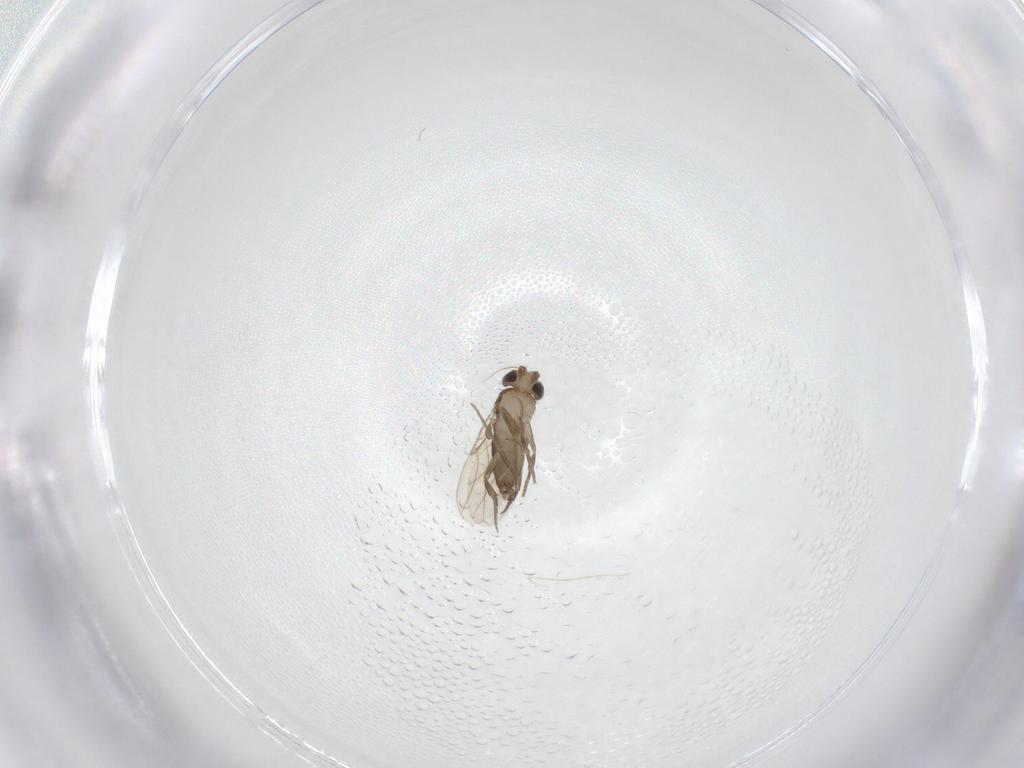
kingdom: Animalia
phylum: Arthropoda
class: Insecta
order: Diptera
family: Phoridae
